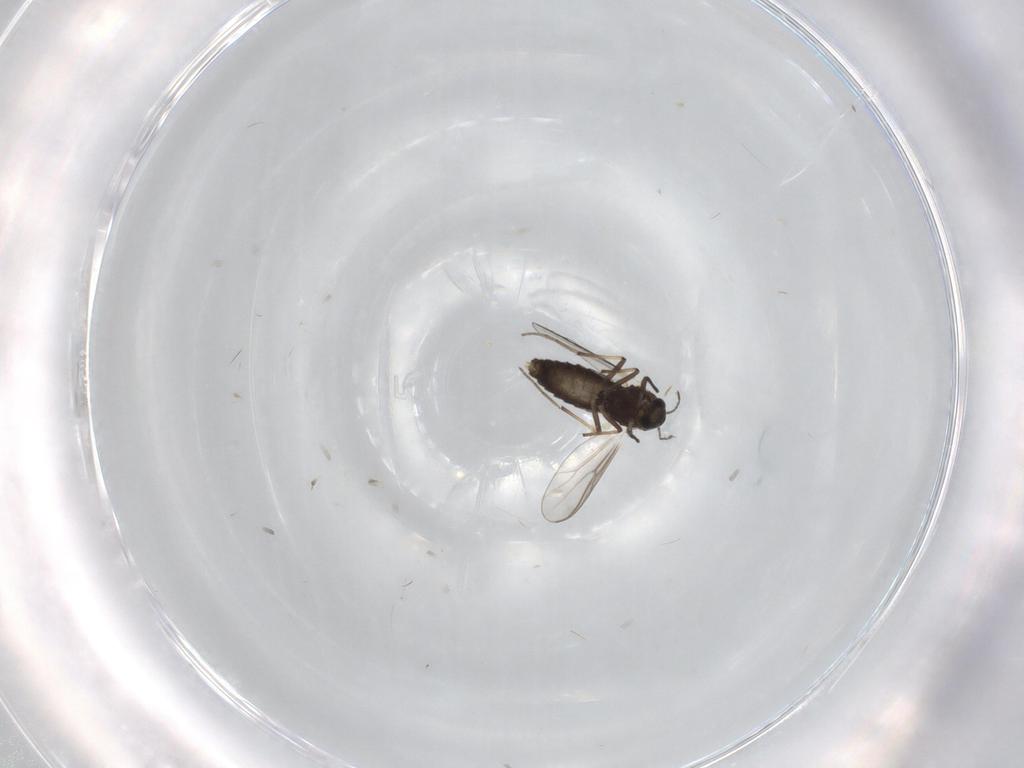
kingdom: Animalia
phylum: Arthropoda
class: Insecta
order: Diptera
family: Chironomidae
